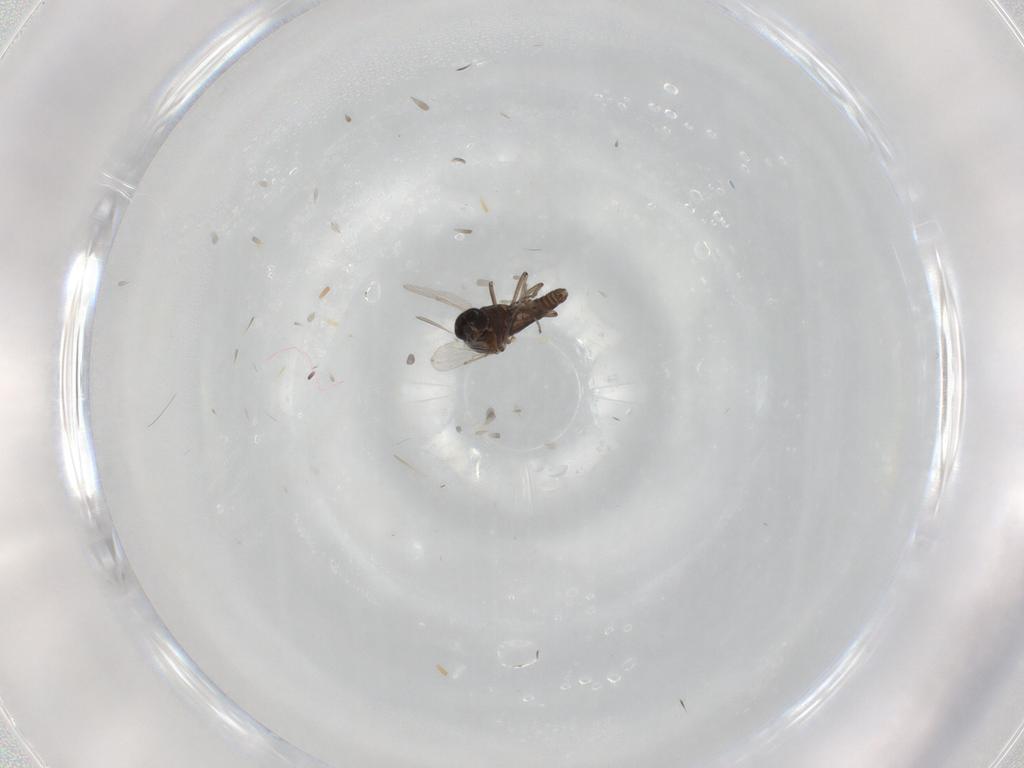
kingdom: Animalia
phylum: Arthropoda
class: Insecta
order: Diptera
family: Ceratopogonidae
